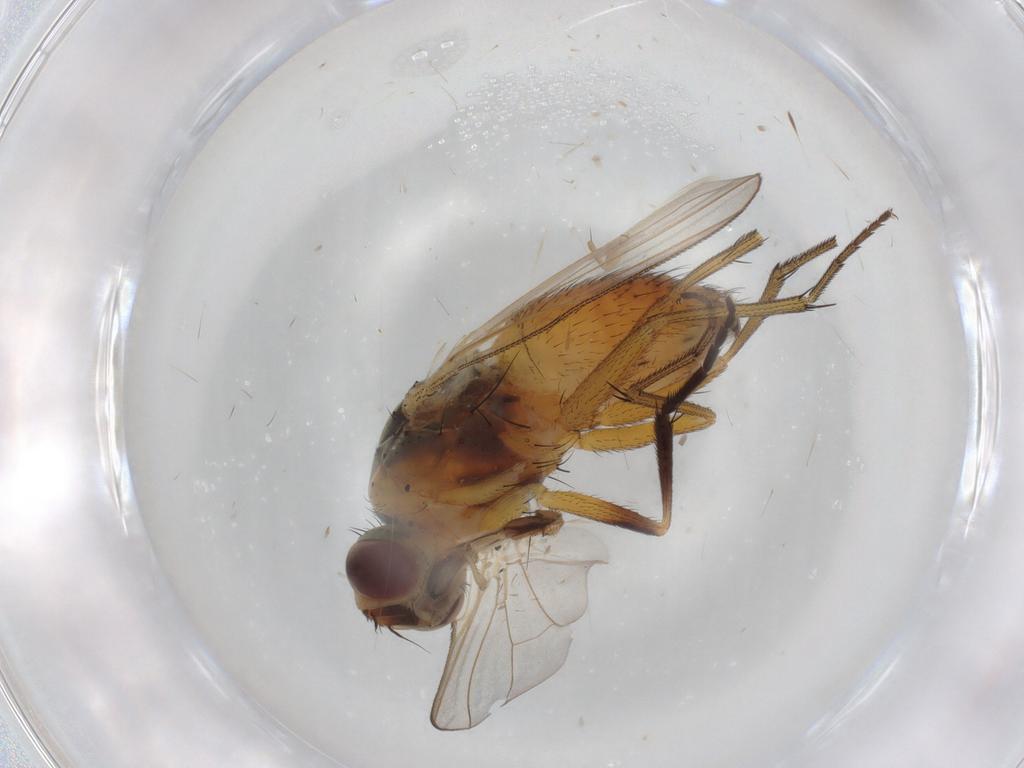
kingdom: Animalia
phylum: Arthropoda
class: Insecta
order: Diptera
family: Muscidae
